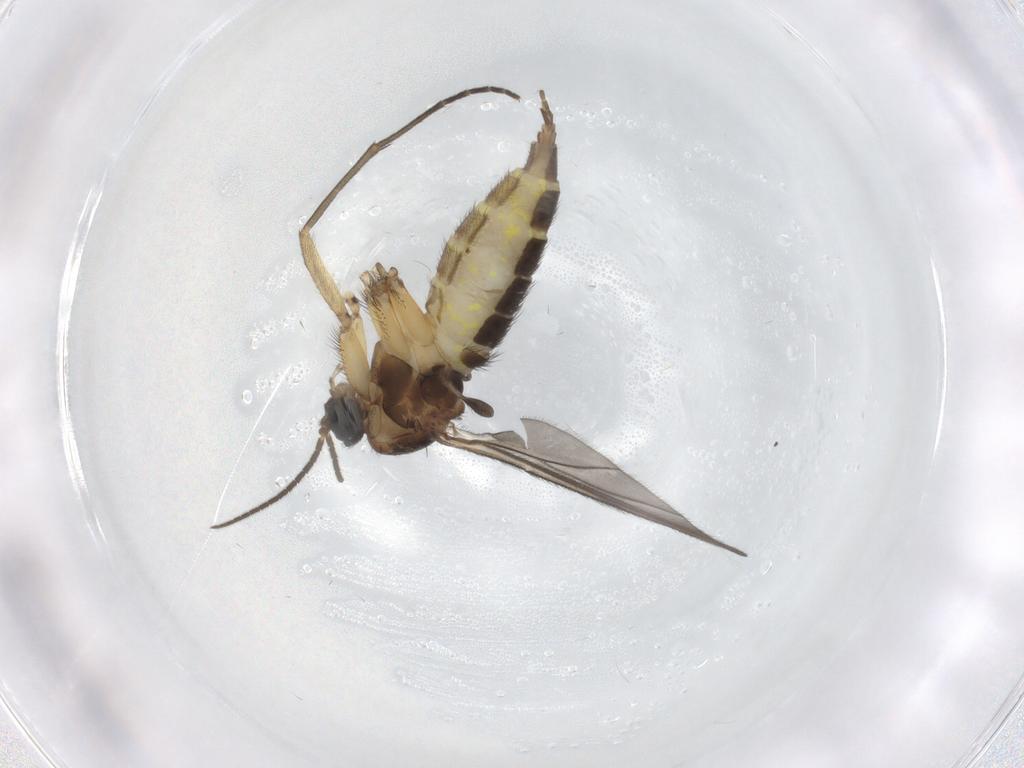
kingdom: Animalia
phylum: Arthropoda
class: Insecta
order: Diptera
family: Sciaridae
